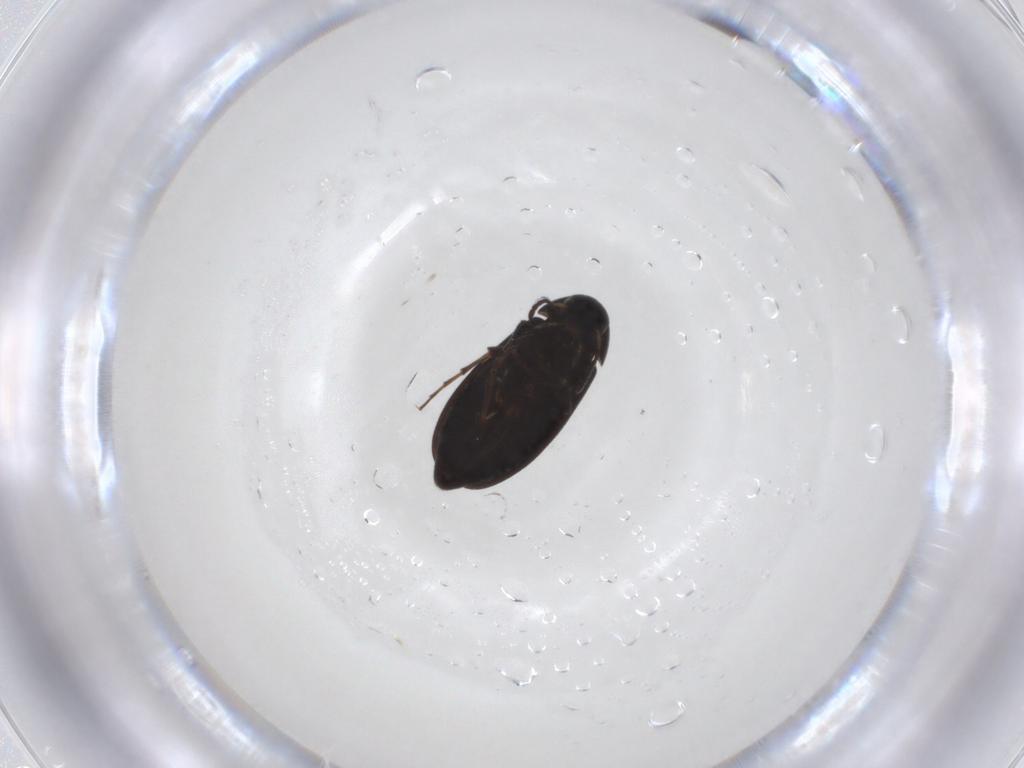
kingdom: Animalia
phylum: Arthropoda
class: Insecta
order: Coleoptera
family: Scraptiidae
